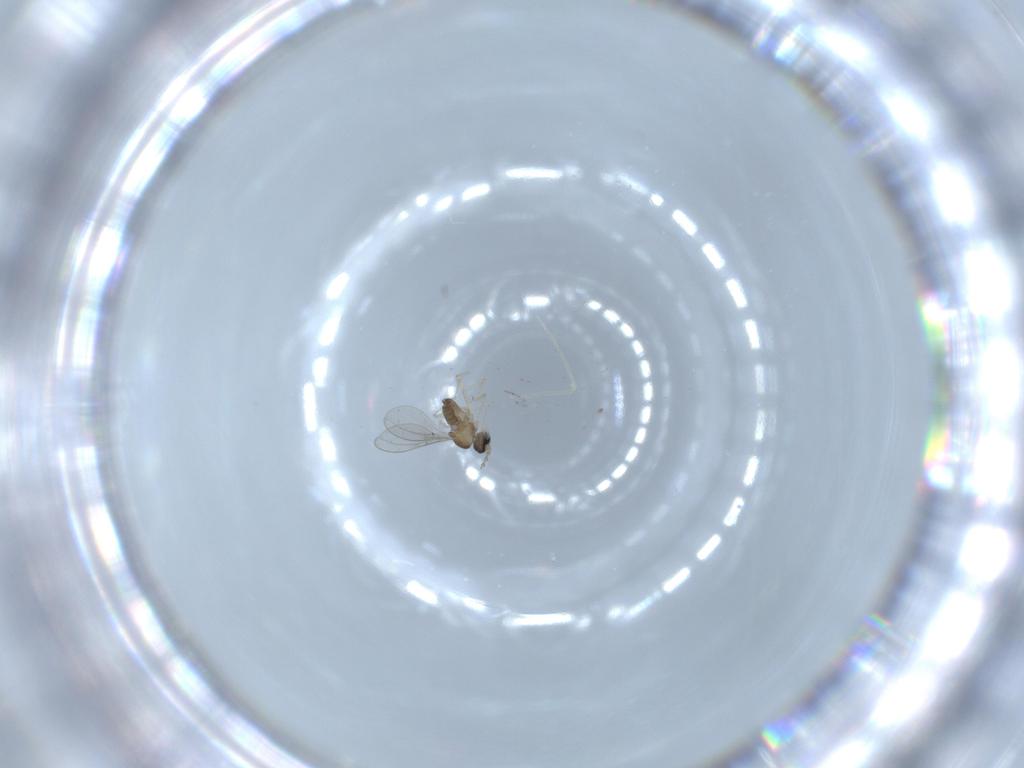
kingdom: Animalia
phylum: Arthropoda
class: Insecta
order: Diptera
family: Cecidomyiidae
